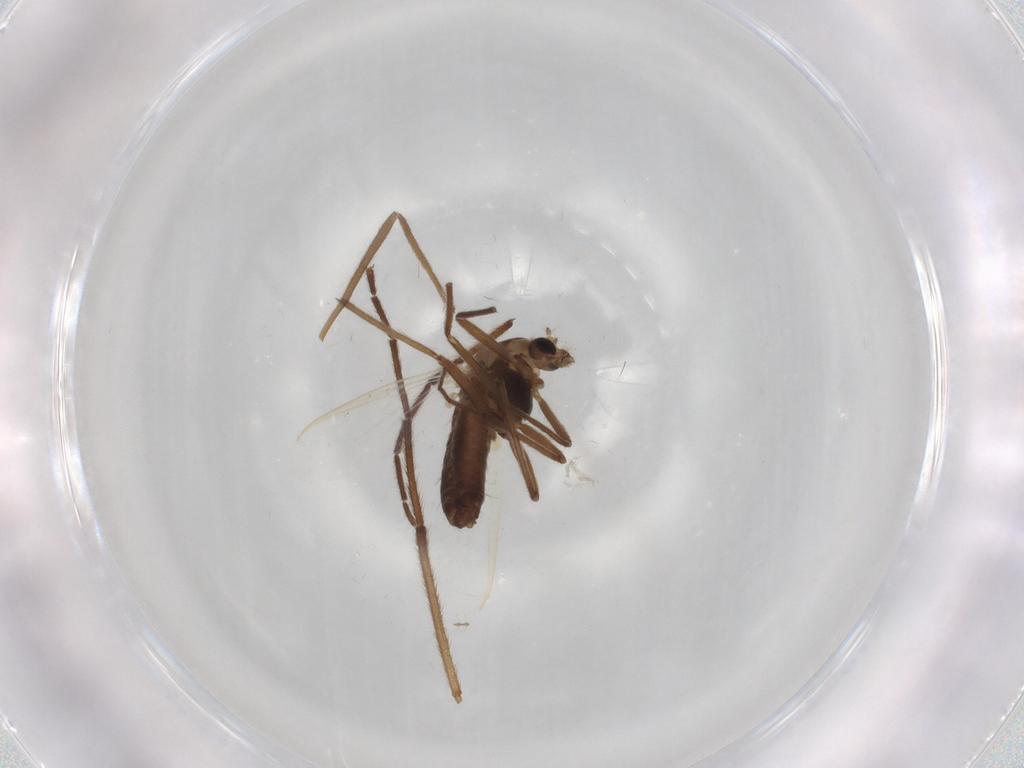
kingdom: Animalia
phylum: Arthropoda
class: Insecta
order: Diptera
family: Chironomidae
